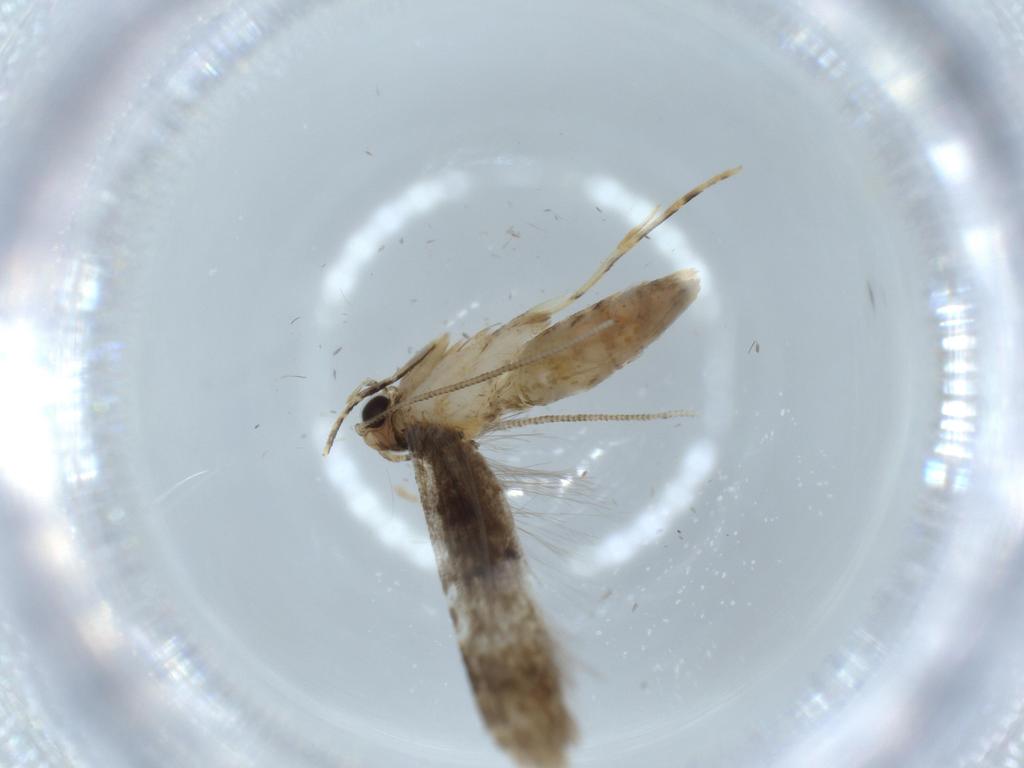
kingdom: Animalia
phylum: Arthropoda
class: Insecta
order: Lepidoptera
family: Tineidae
